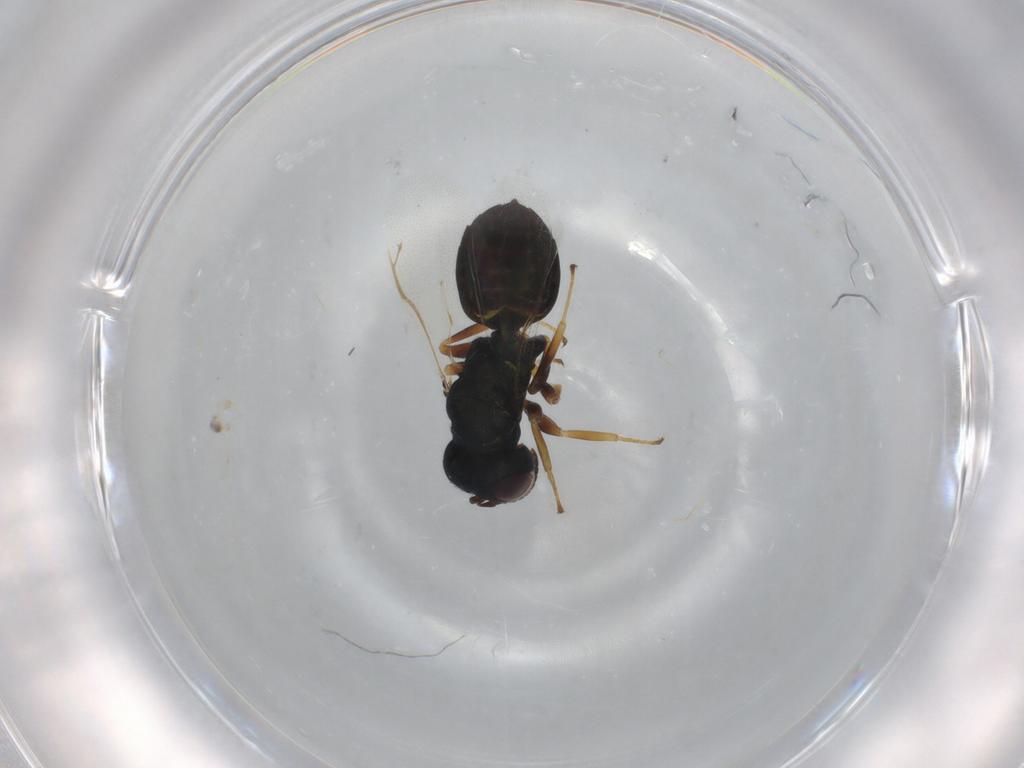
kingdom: Animalia
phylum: Arthropoda
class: Insecta
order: Hymenoptera
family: Pteromalidae
